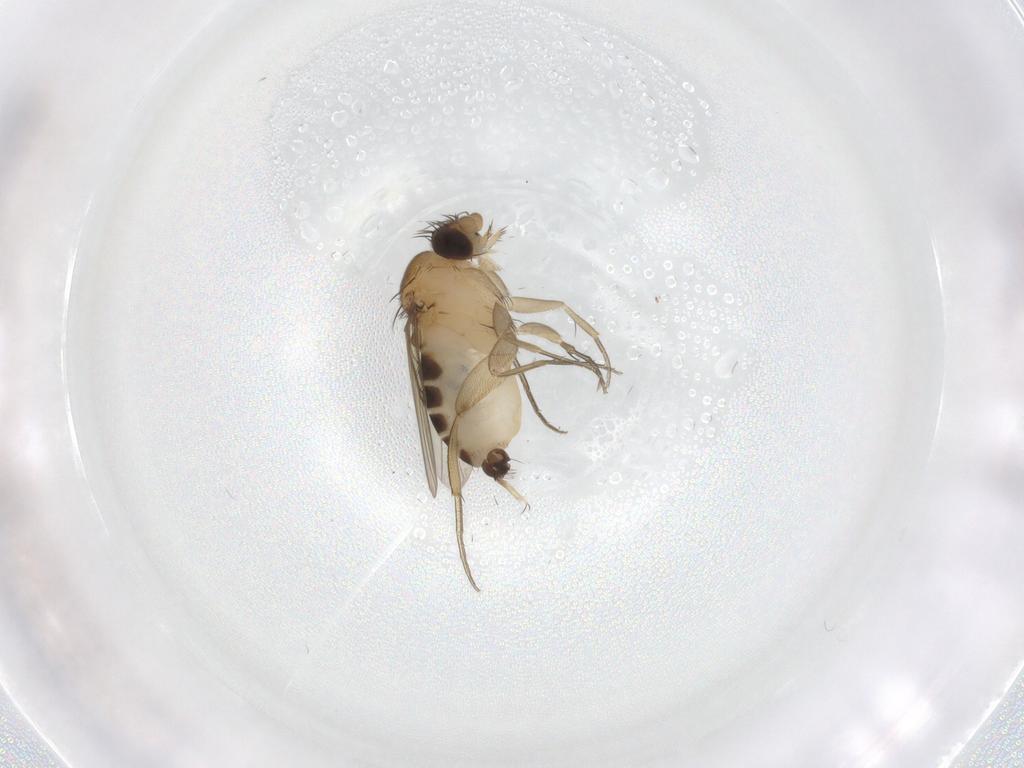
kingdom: Animalia
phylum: Arthropoda
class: Insecta
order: Diptera
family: Phoridae
